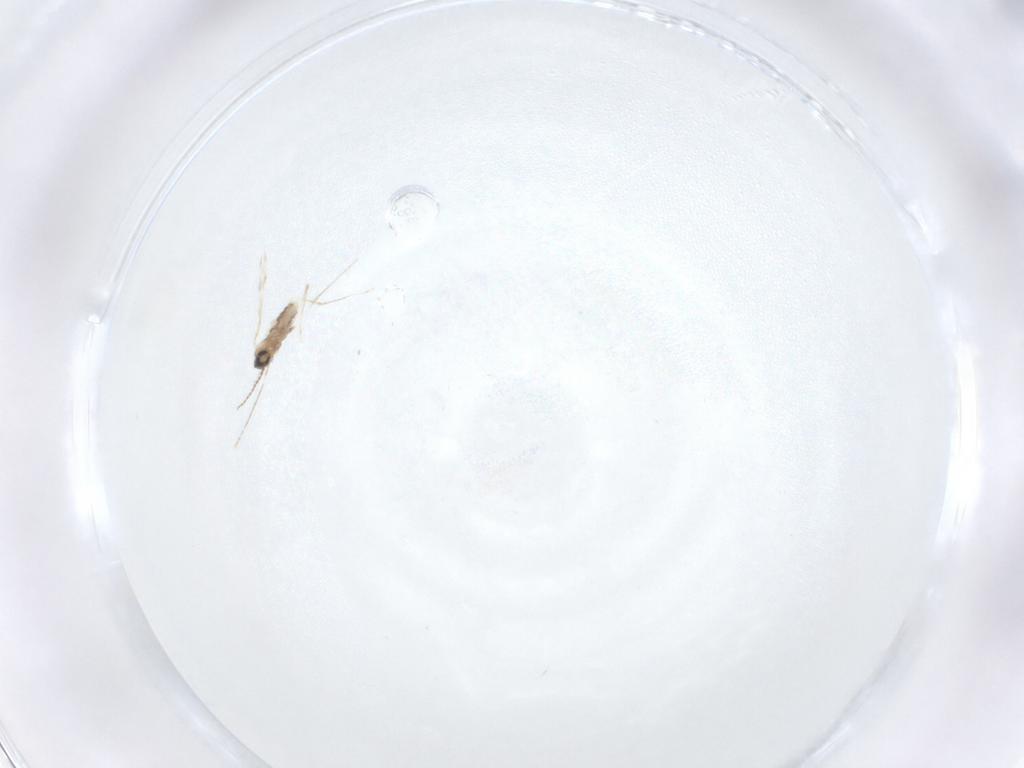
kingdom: Animalia
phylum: Arthropoda
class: Insecta
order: Diptera
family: Cecidomyiidae
